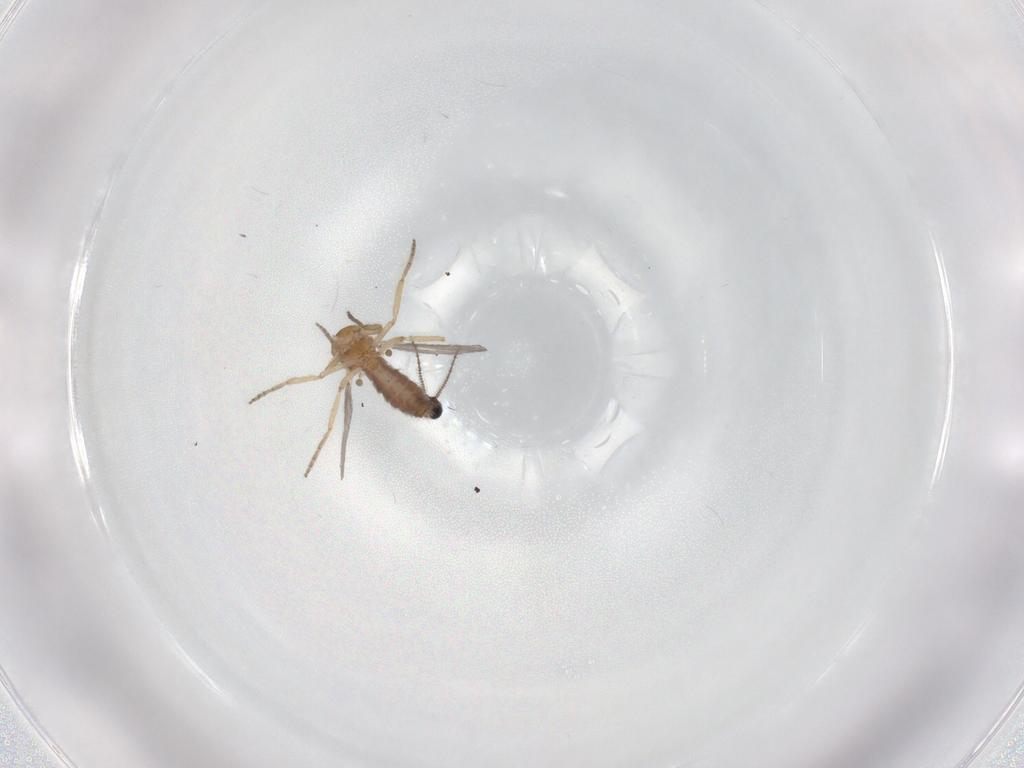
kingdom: Animalia
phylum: Arthropoda
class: Insecta
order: Diptera
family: Ceratopogonidae
